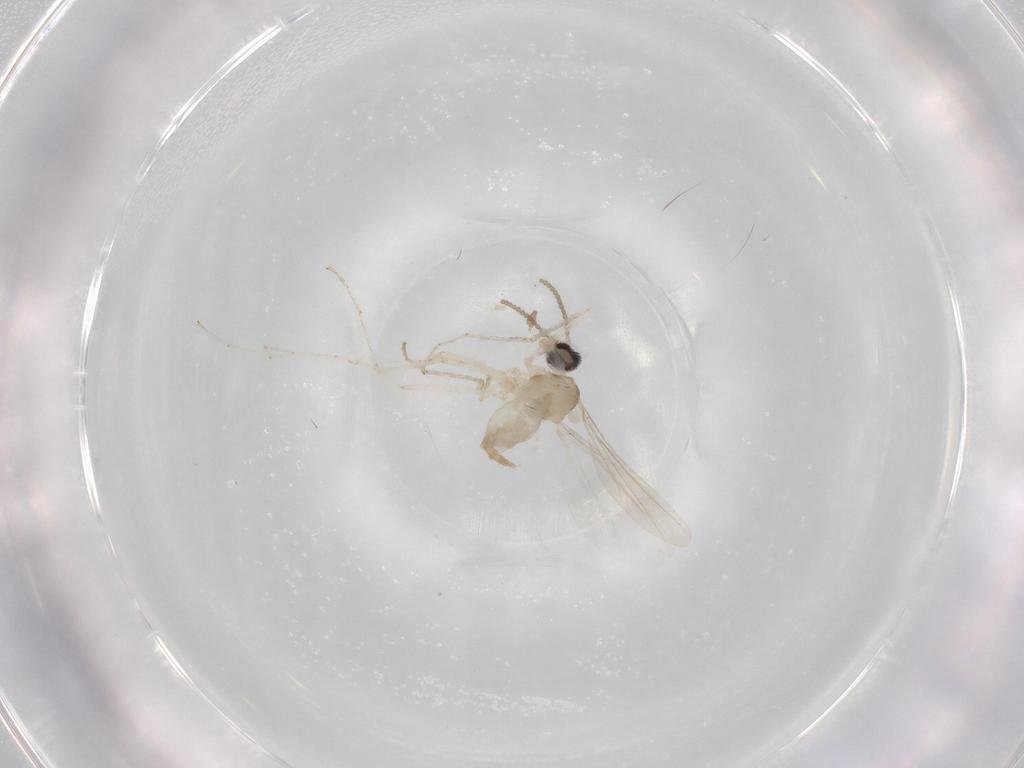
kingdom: Animalia
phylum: Arthropoda
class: Insecta
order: Diptera
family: Cecidomyiidae
